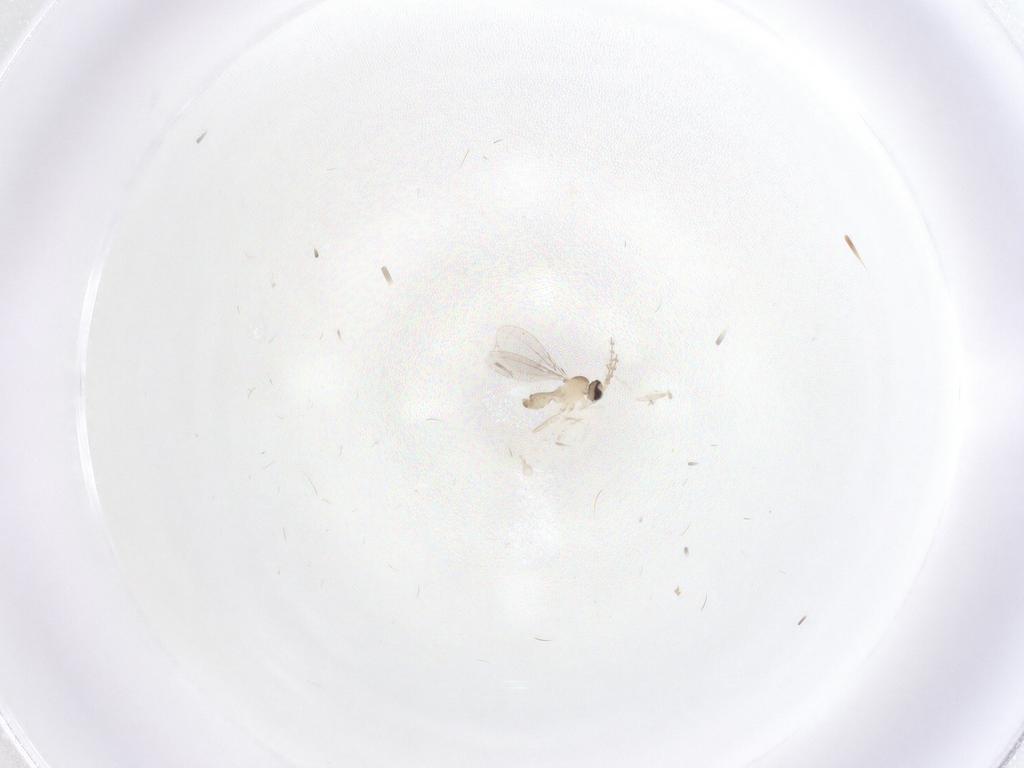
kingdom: Animalia
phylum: Arthropoda
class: Insecta
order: Diptera
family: Cecidomyiidae
